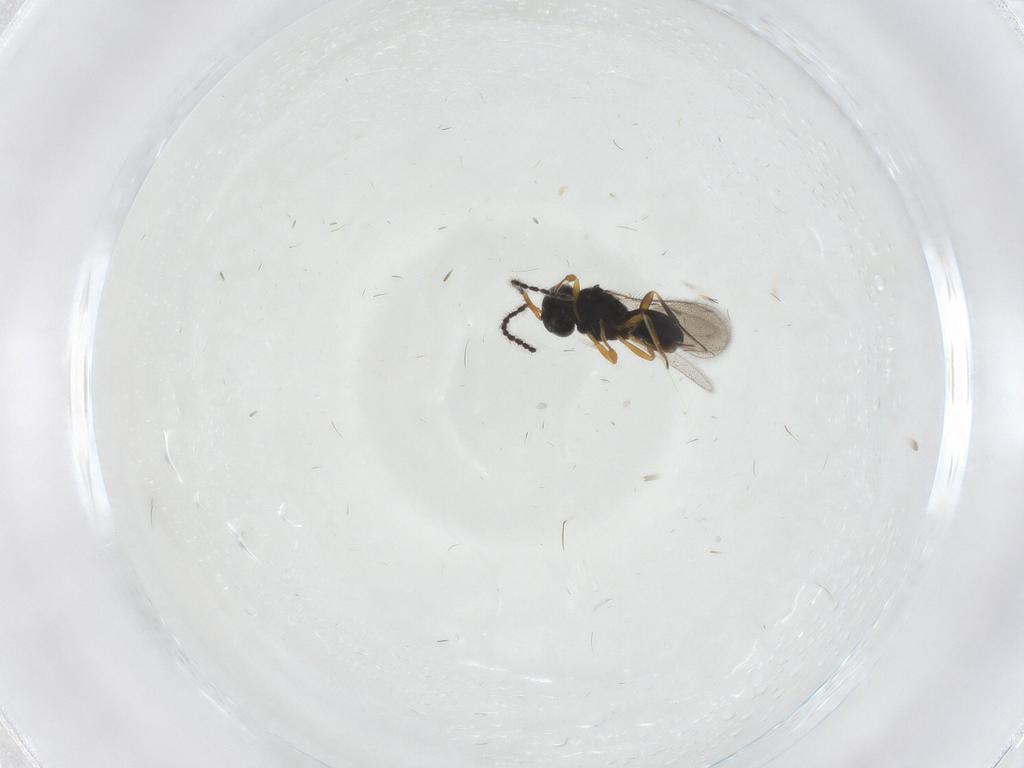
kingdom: Animalia
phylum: Arthropoda
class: Insecta
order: Hymenoptera
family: Scelionidae
